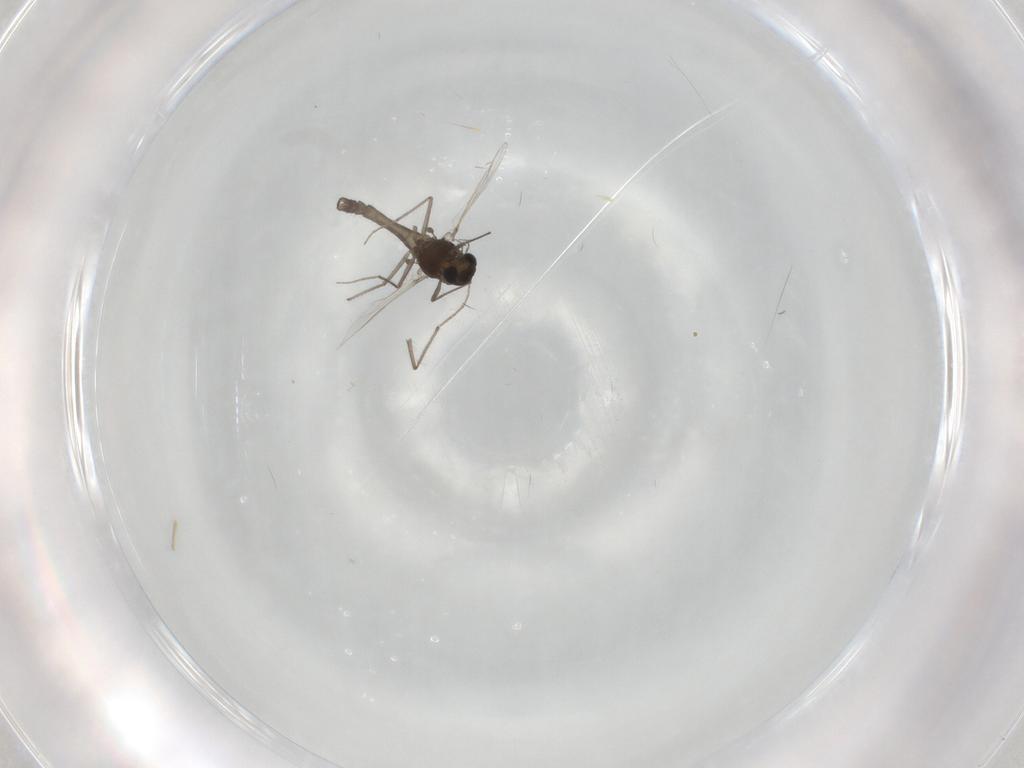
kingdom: Animalia
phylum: Arthropoda
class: Insecta
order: Diptera
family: Chironomidae
